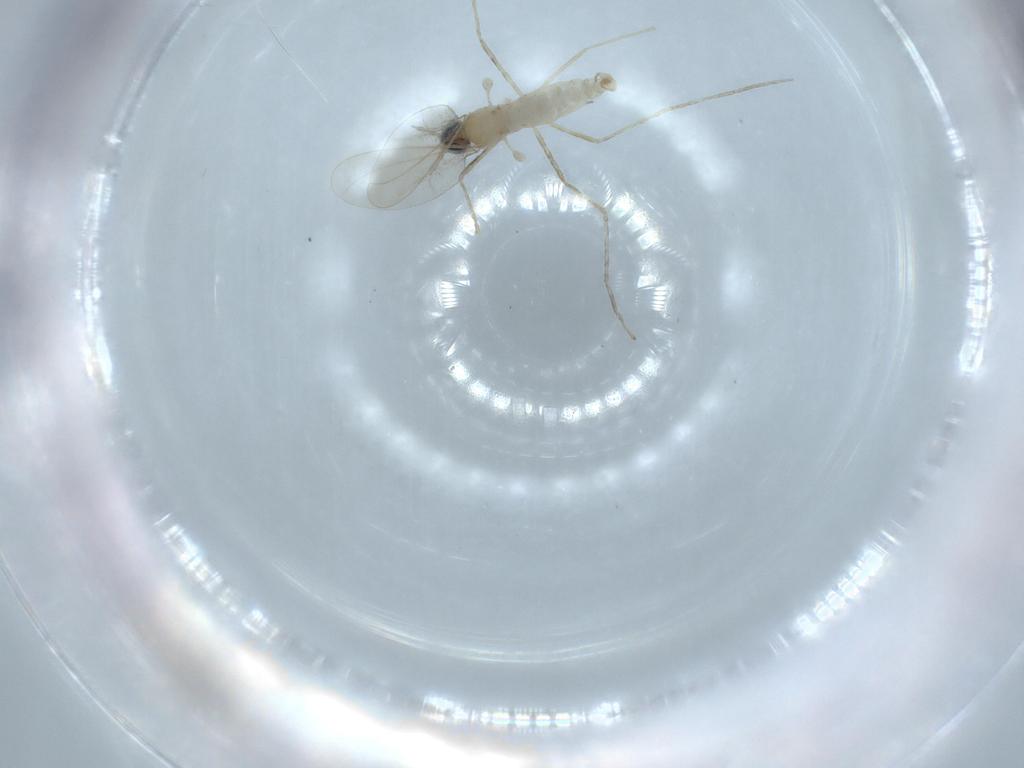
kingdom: Animalia
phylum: Arthropoda
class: Insecta
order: Diptera
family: Cecidomyiidae
